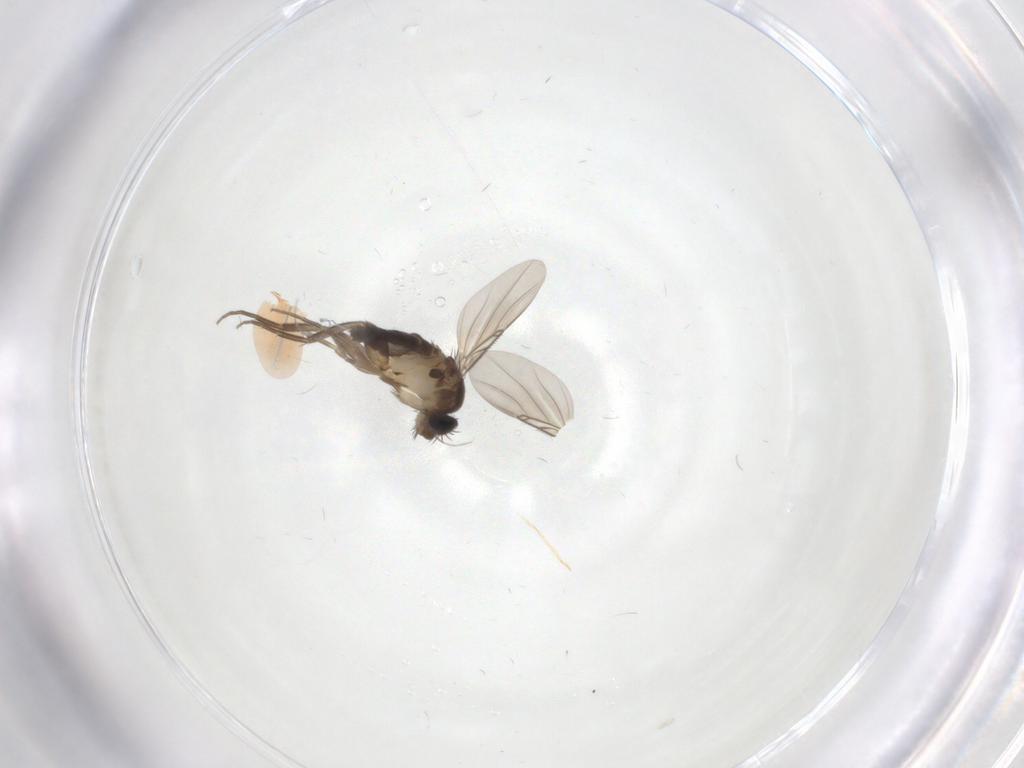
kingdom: Animalia
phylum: Arthropoda
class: Insecta
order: Diptera
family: Phoridae
